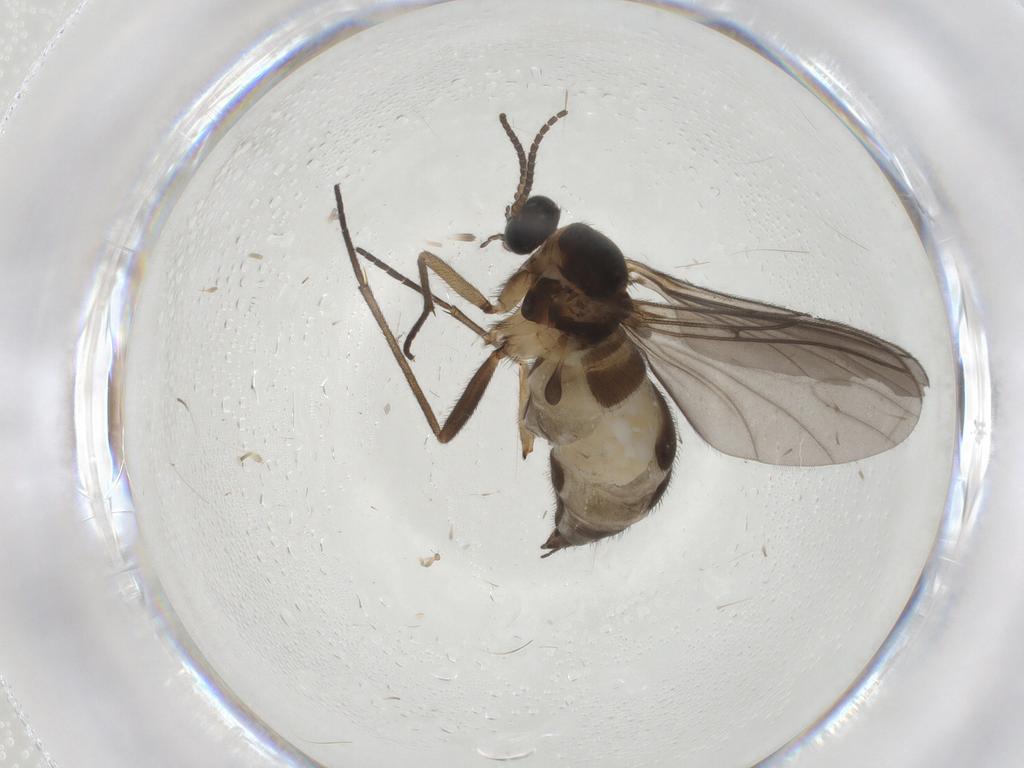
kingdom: Animalia
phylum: Arthropoda
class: Insecta
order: Diptera
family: Sciaridae
